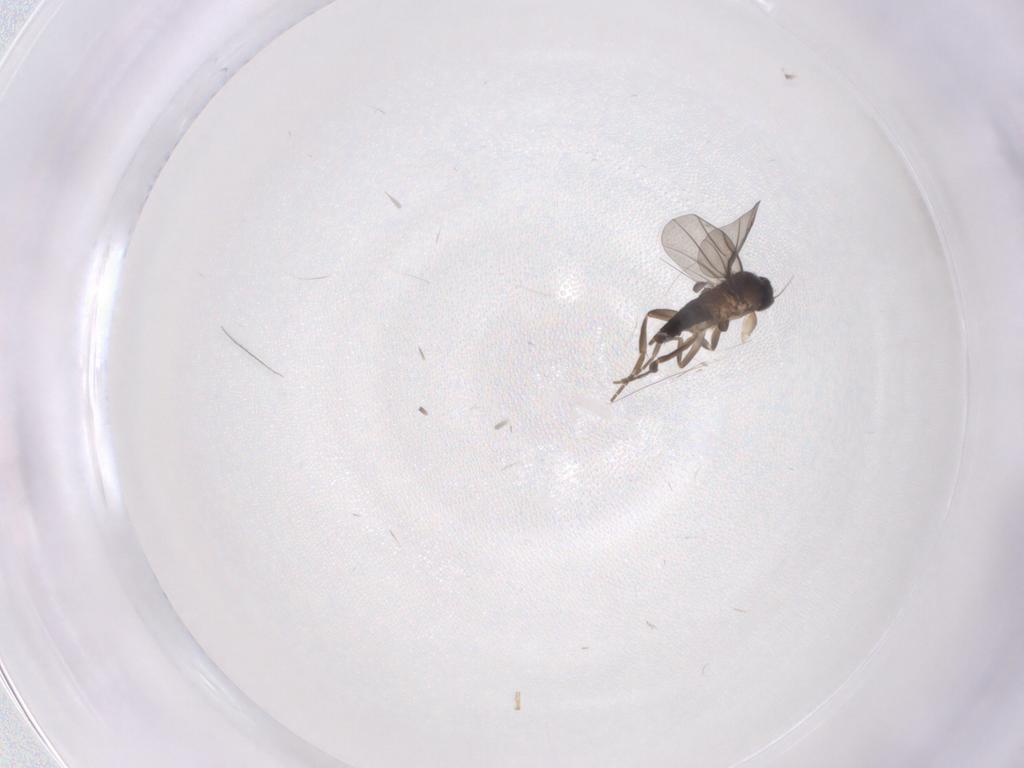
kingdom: Animalia
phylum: Arthropoda
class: Insecta
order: Diptera
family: Phoridae
